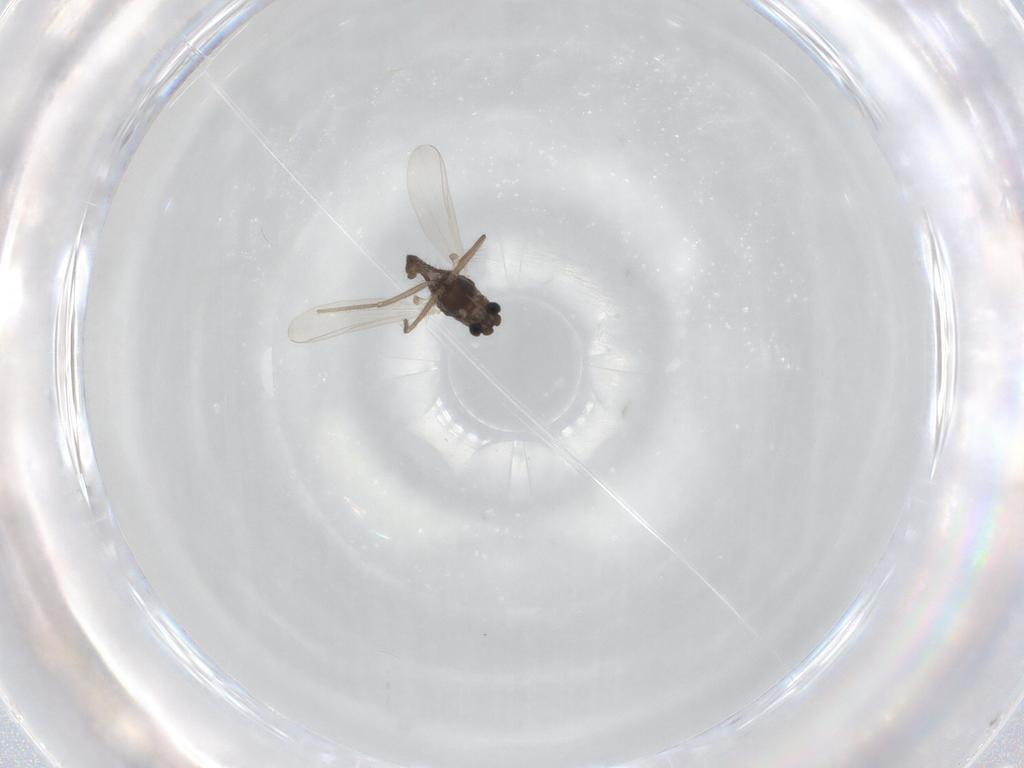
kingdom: Animalia
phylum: Arthropoda
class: Insecta
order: Diptera
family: Chironomidae
